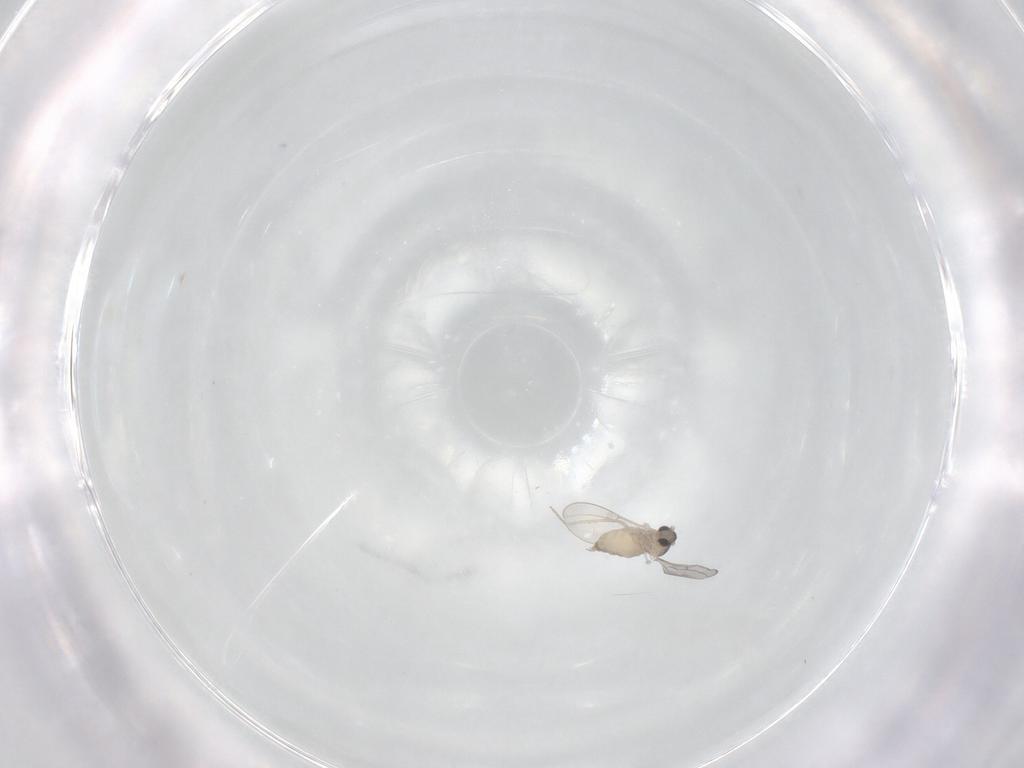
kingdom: Animalia
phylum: Arthropoda
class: Insecta
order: Diptera
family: Cecidomyiidae
